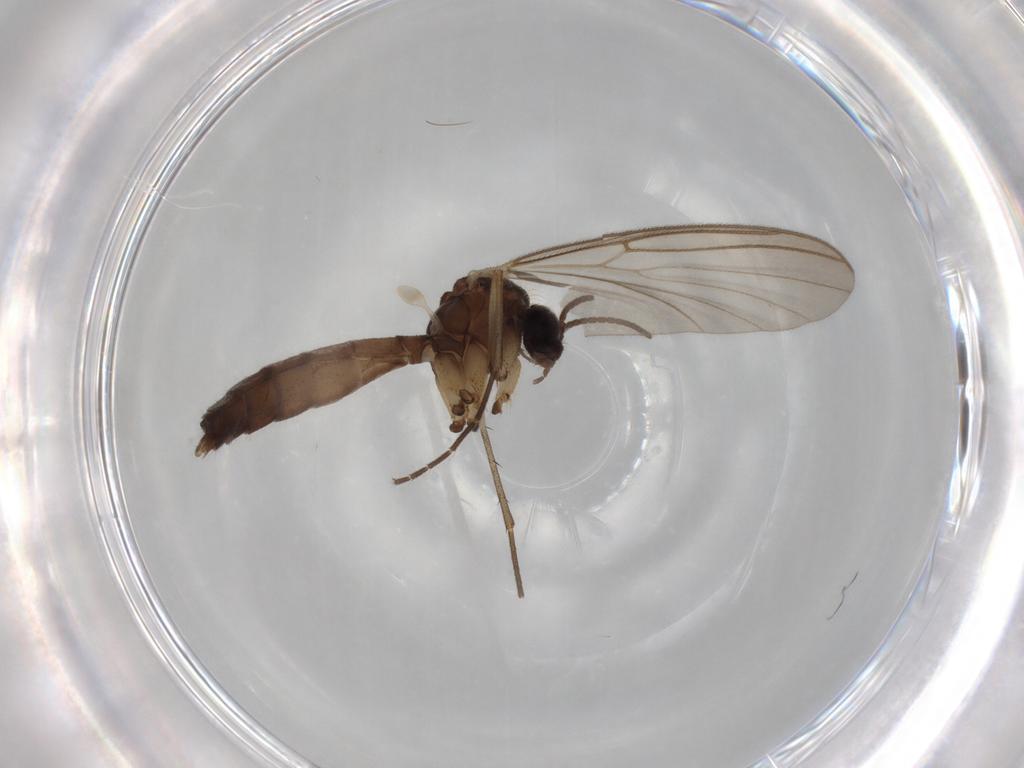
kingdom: Animalia
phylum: Arthropoda
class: Insecta
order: Diptera
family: Mycetophilidae
